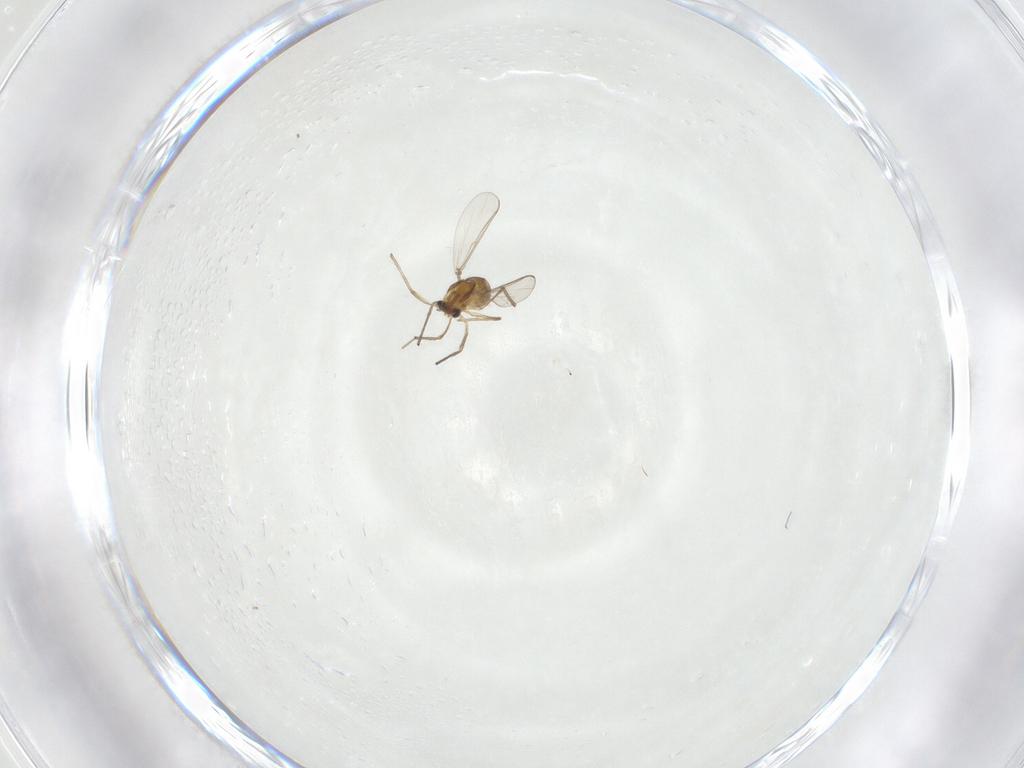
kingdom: Animalia
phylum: Arthropoda
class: Insecta
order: Diptera
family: Chironomidae
